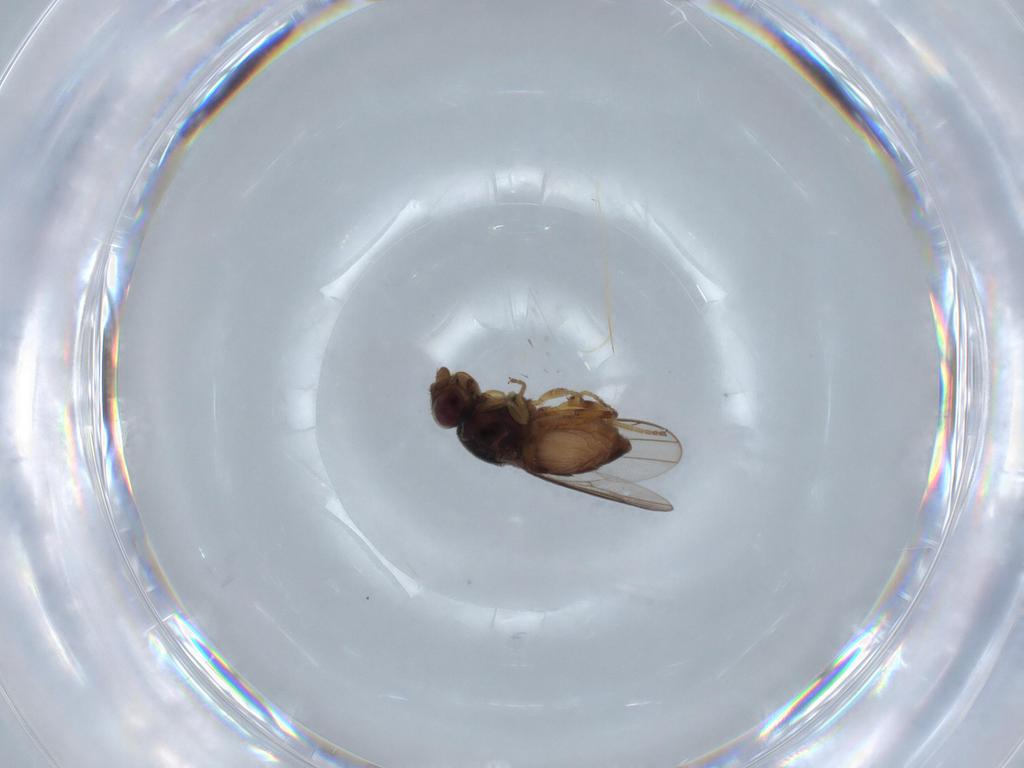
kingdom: Animalia
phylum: Arthropoda
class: Insecta
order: Diptera
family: Chloropidae
